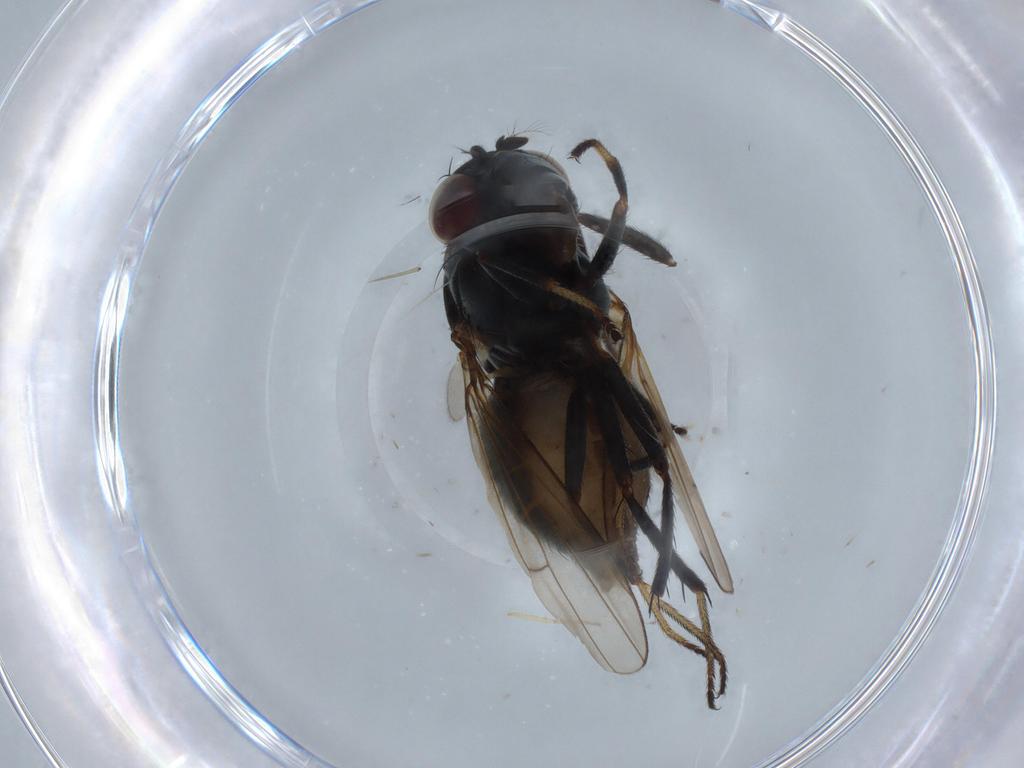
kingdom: Animalia
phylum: Arthropoda
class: Insecta
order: Diptera
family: Ephydridae
